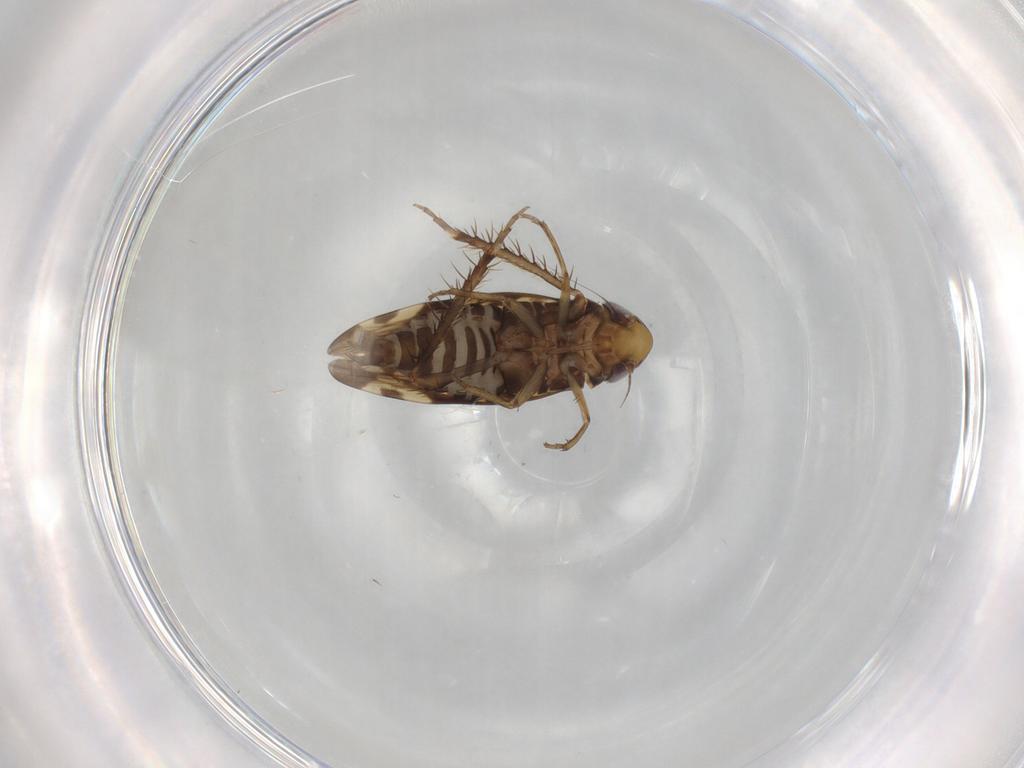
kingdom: Animalia
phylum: Arthropoda
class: Insecta
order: Hemiptera
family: Cicadellidae
